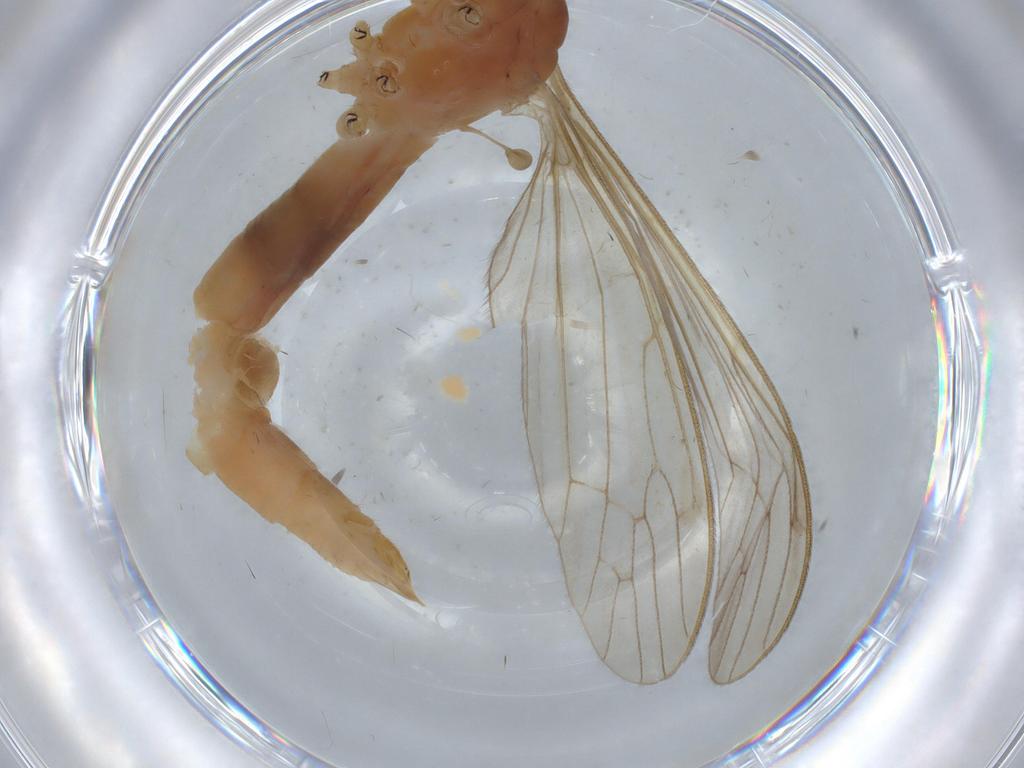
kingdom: Animalia
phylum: Arthropoda
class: Insecta
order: Diptera
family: Limoniidae
